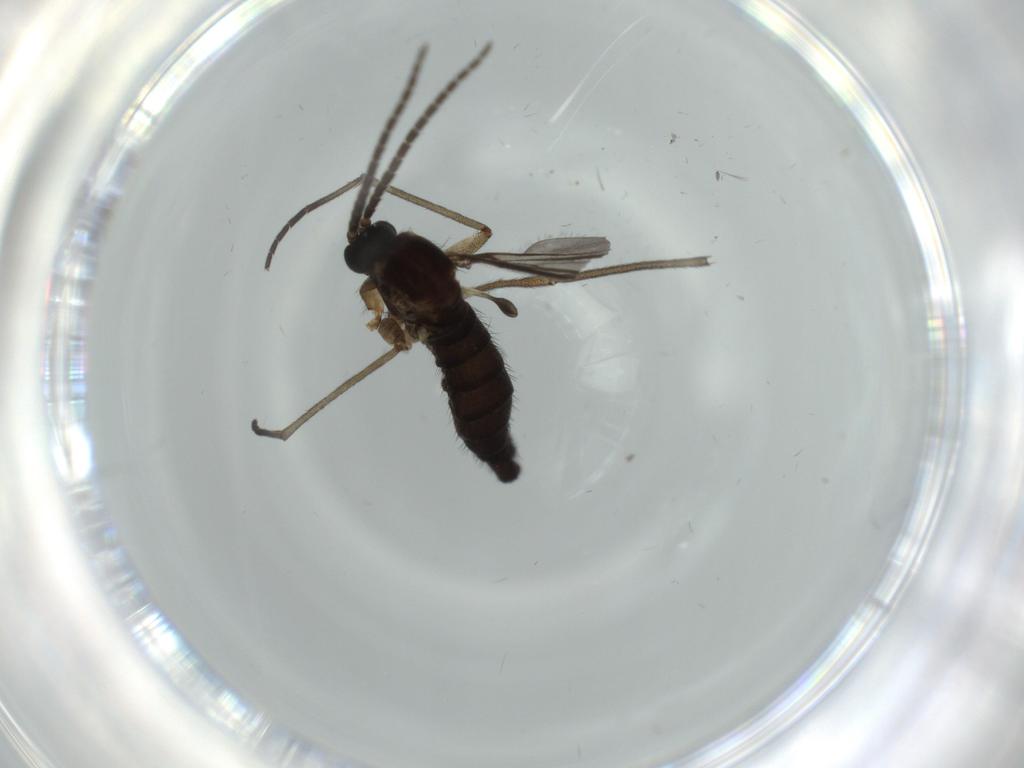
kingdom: Animalia
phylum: Arthropoda
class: Insecta
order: Diptera
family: Sciaridae
